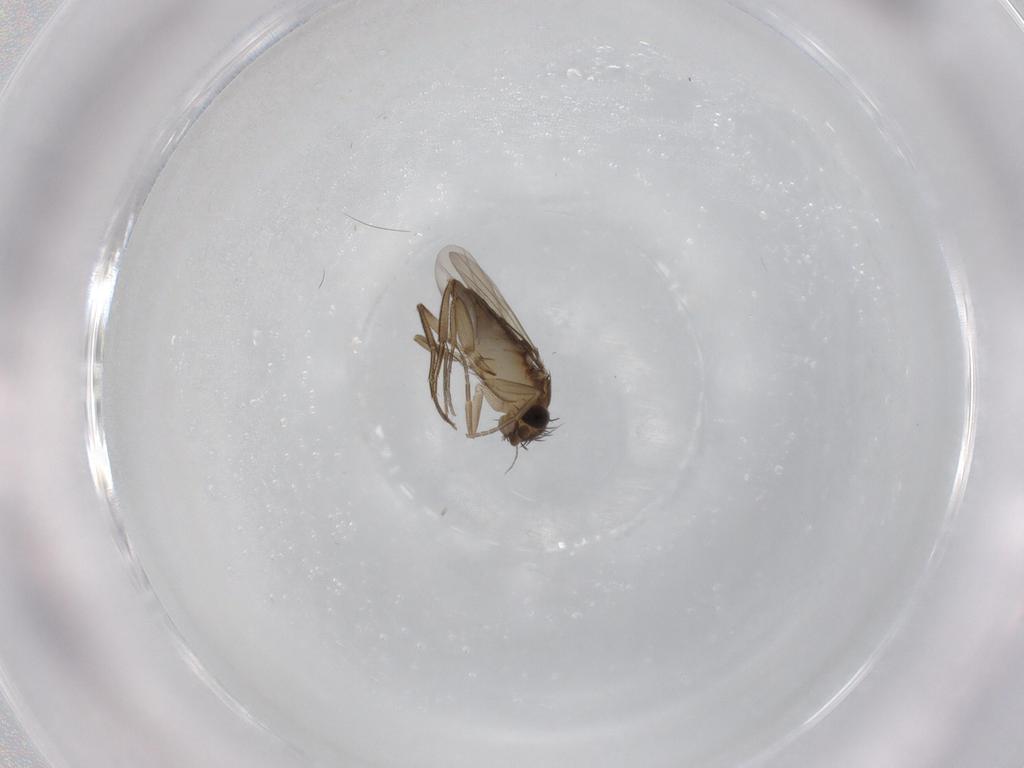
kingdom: Animalia
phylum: Arthropoda
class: Insecta
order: Diptera
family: Phoridae
